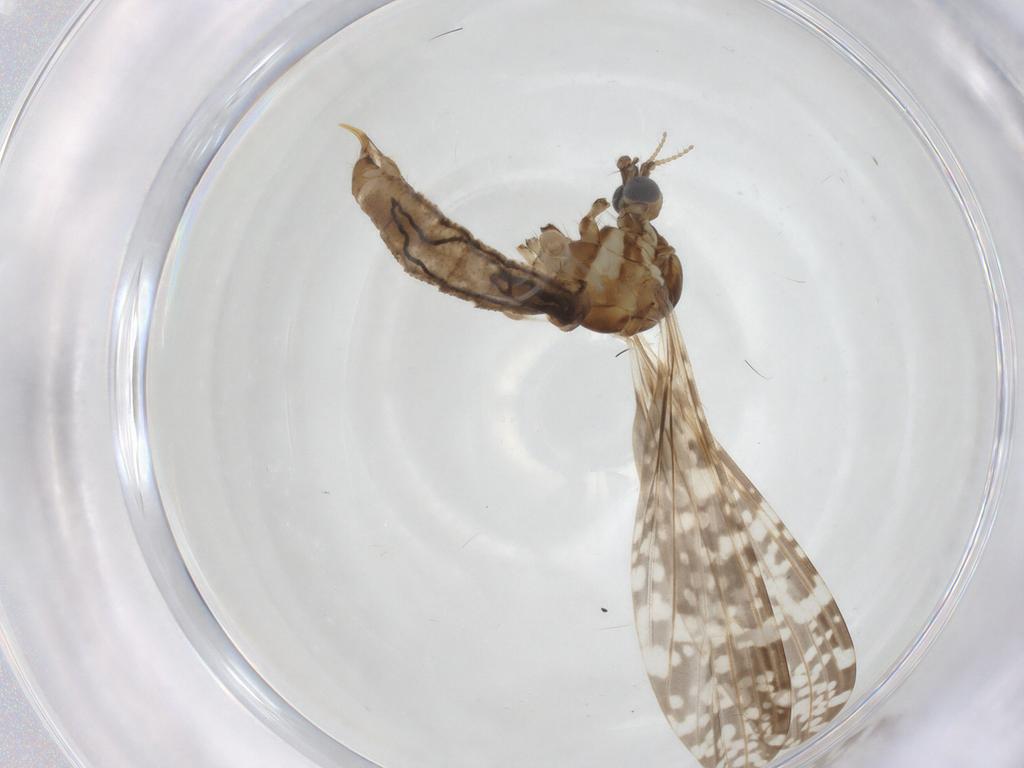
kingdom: Animalia
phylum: Arthropoda
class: Insecta
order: Diptera
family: Limoniidae
